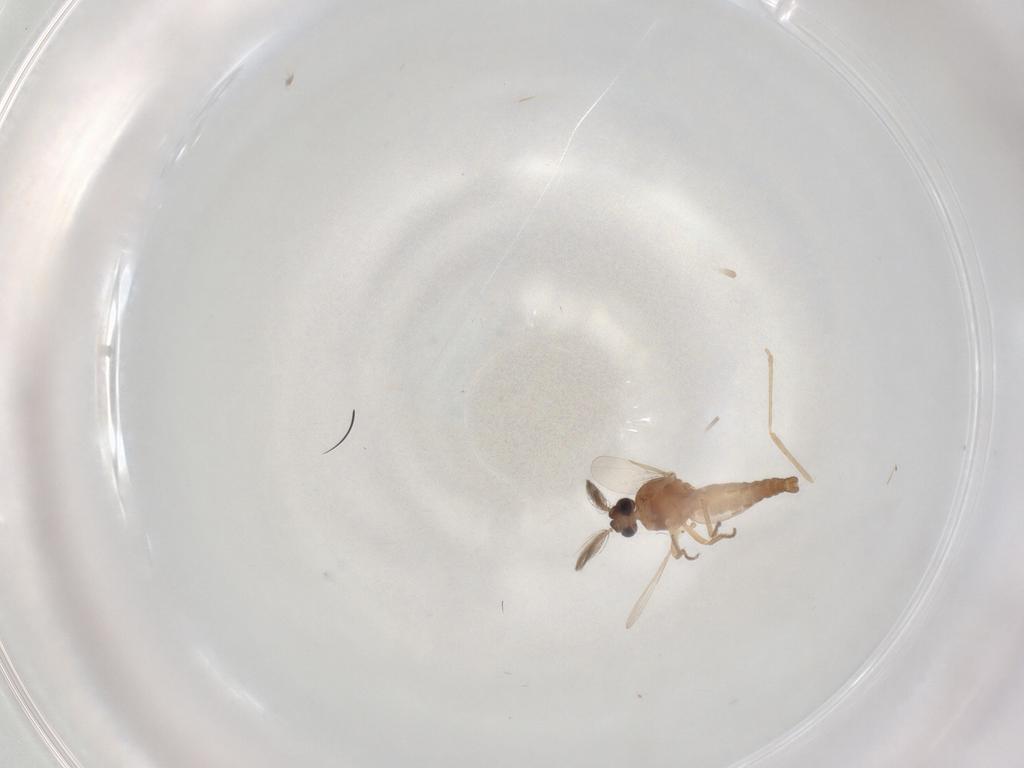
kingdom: Animalia
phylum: Arthropoda
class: Insecta
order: Diptera
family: Ceratopogonidae
